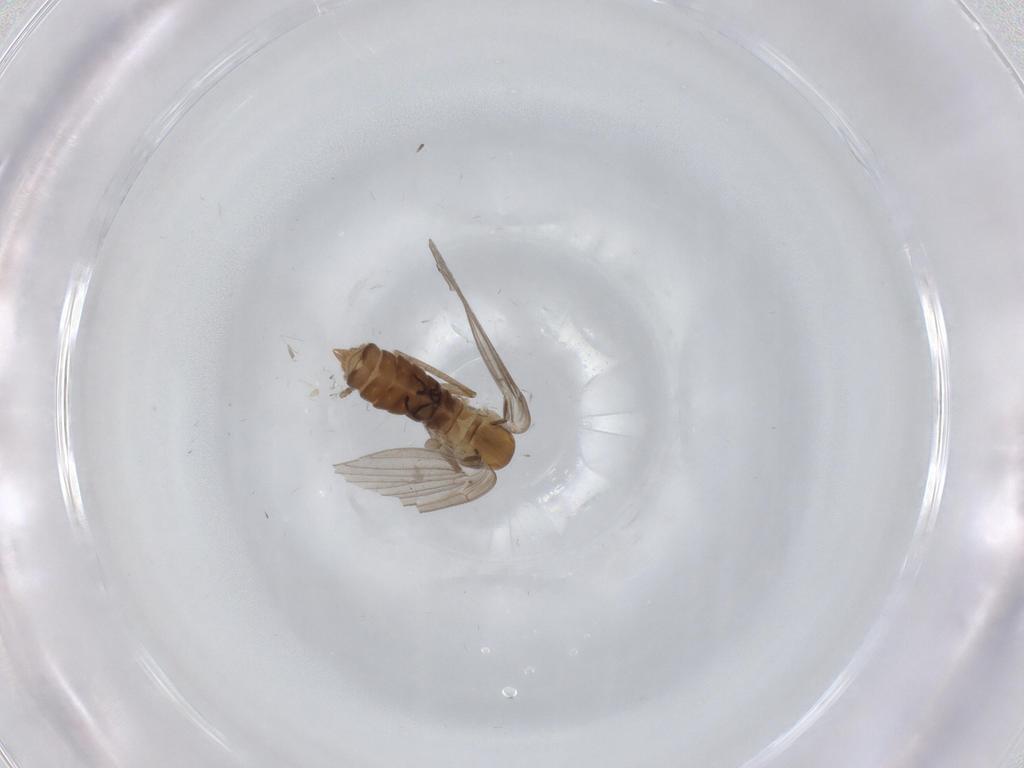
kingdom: Animalia
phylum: Arthropoda
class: Insecta
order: Diptera
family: Psychodidae
